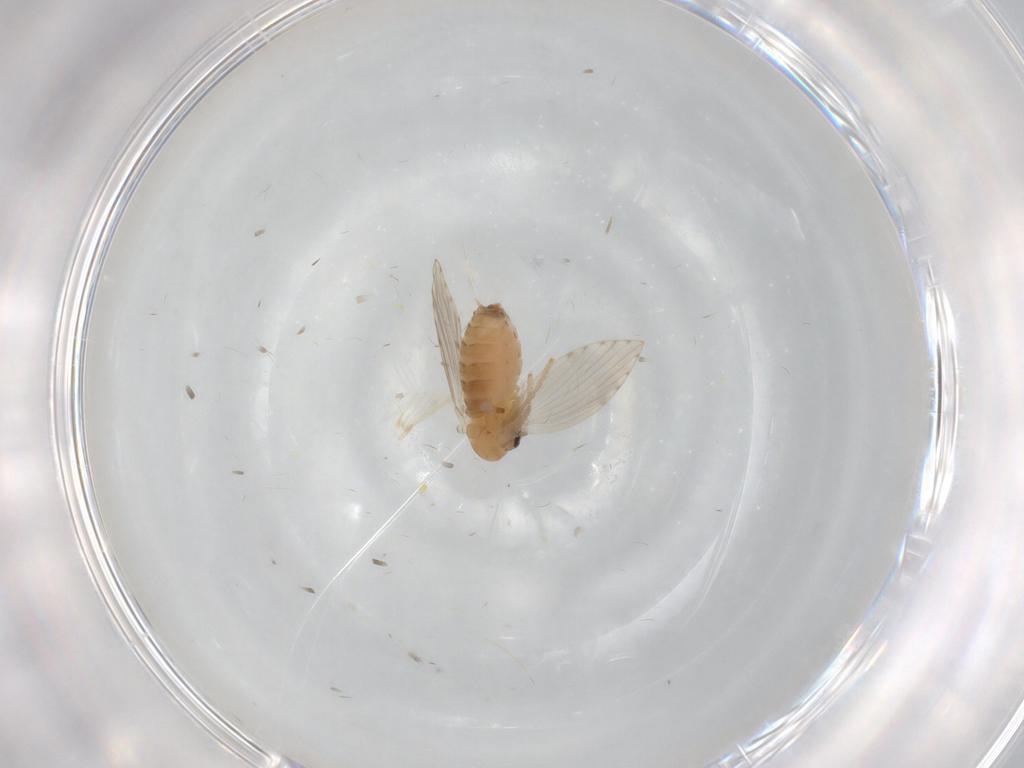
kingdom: Animalia
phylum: Arthropoda
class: Insecta
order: Diptera
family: Psychodidae
